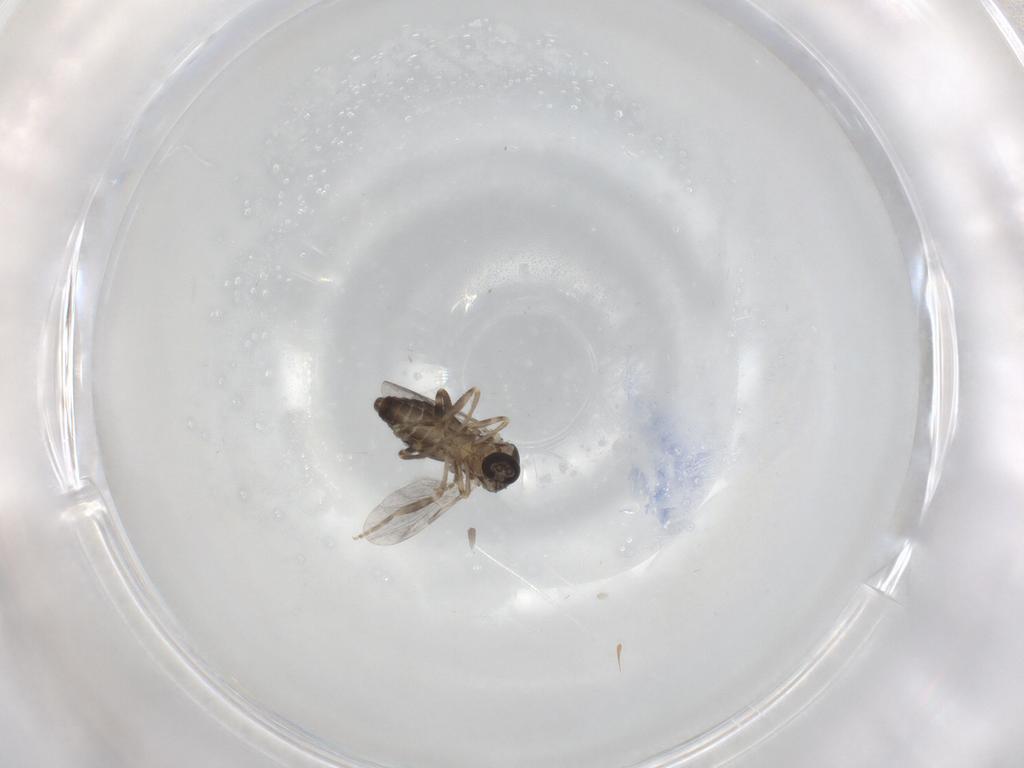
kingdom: Animalia
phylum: Arthropoda
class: Insecta
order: Diptera
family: Ceratopogonidae
